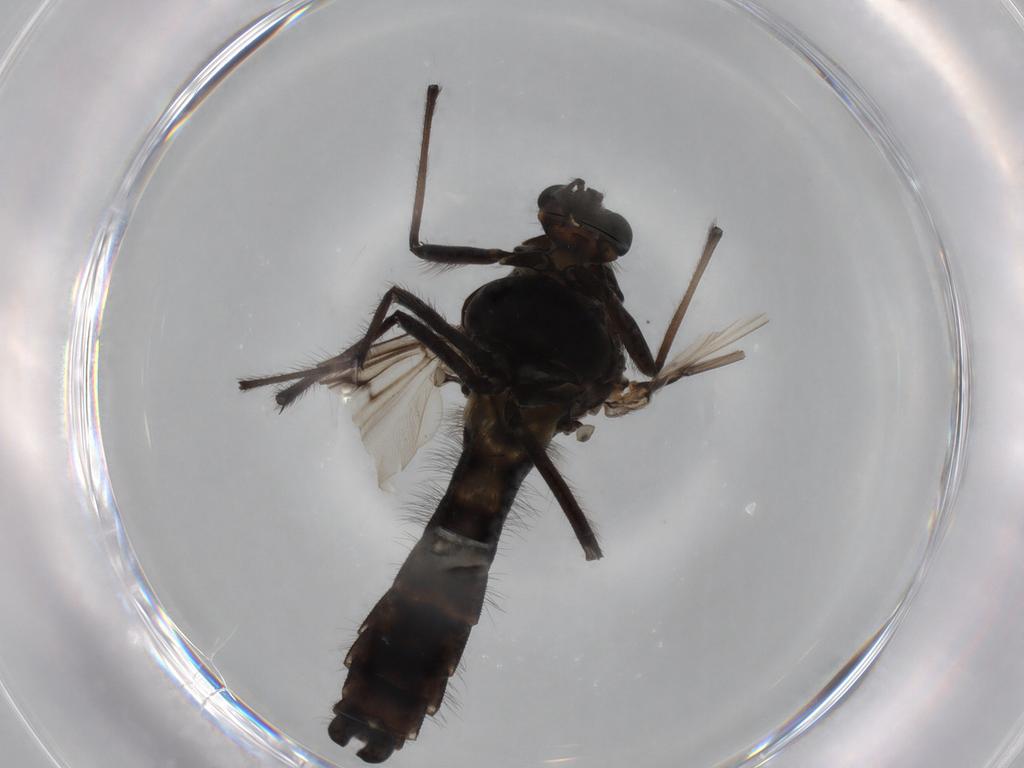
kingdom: Animalia
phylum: Arthropoda
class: Insecta
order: Diptera
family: Chironomidae
